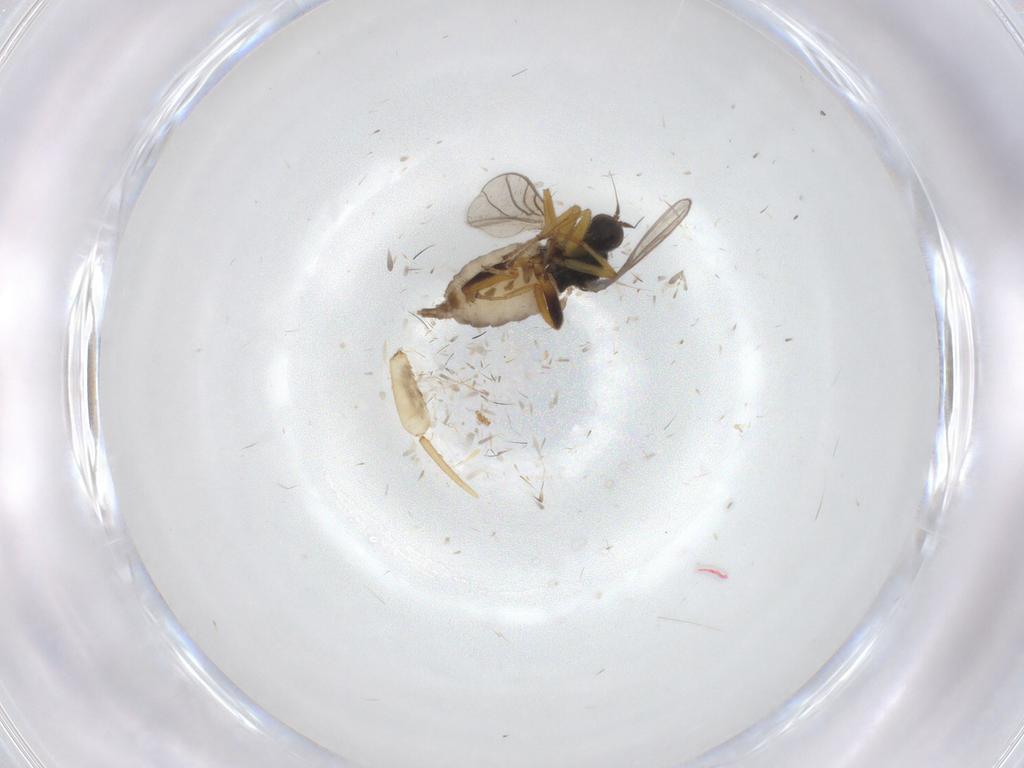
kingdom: Animalia
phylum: Arthropoda
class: Insecta
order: Diptera
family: Hybotidae
